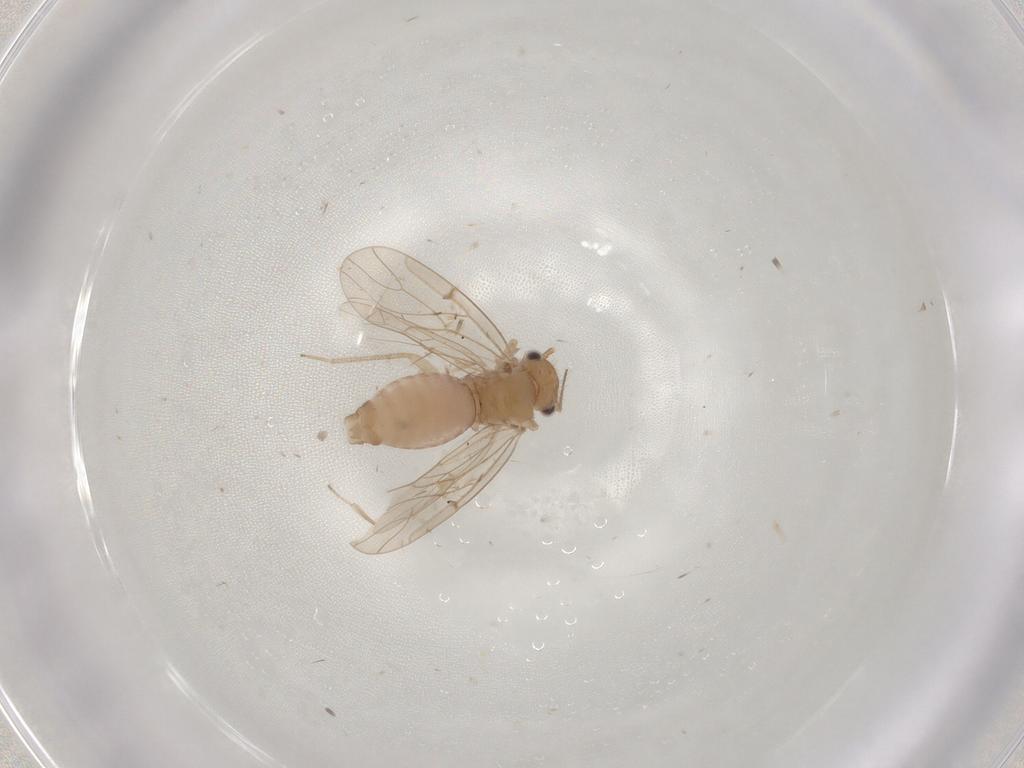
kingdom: Animalia
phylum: Arthropoda
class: Insecta
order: Psocodea
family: Ectopsocidae
